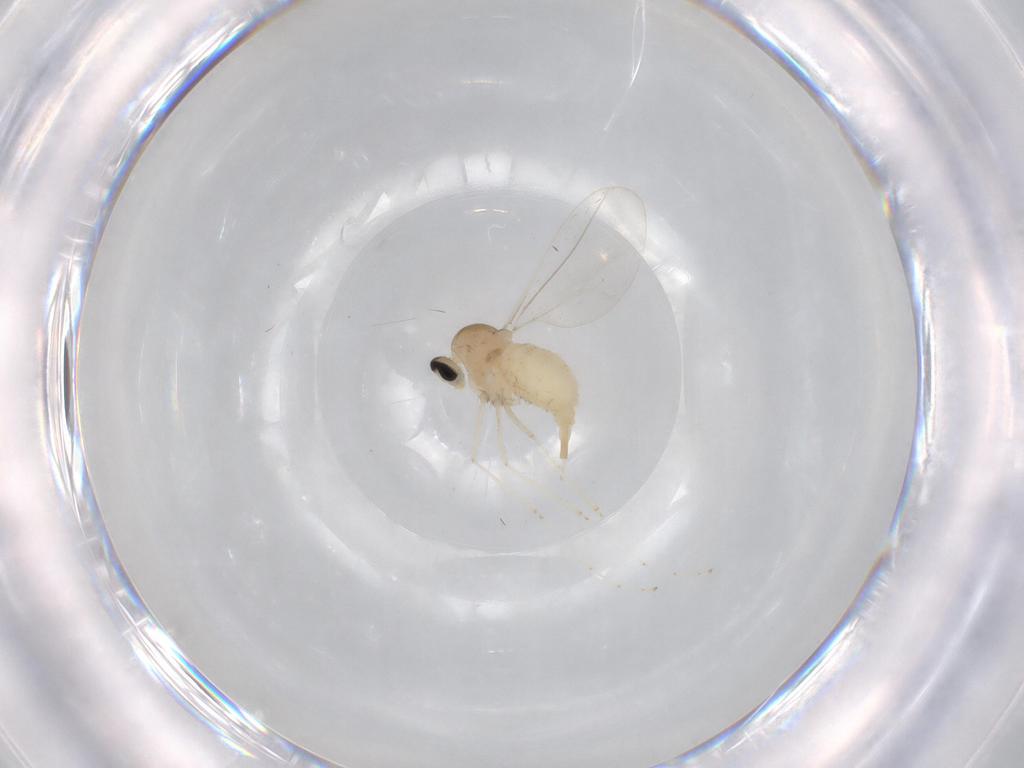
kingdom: Animalia
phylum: Arthropoda
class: Insecta
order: Diptera
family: Cecidomyiidae
